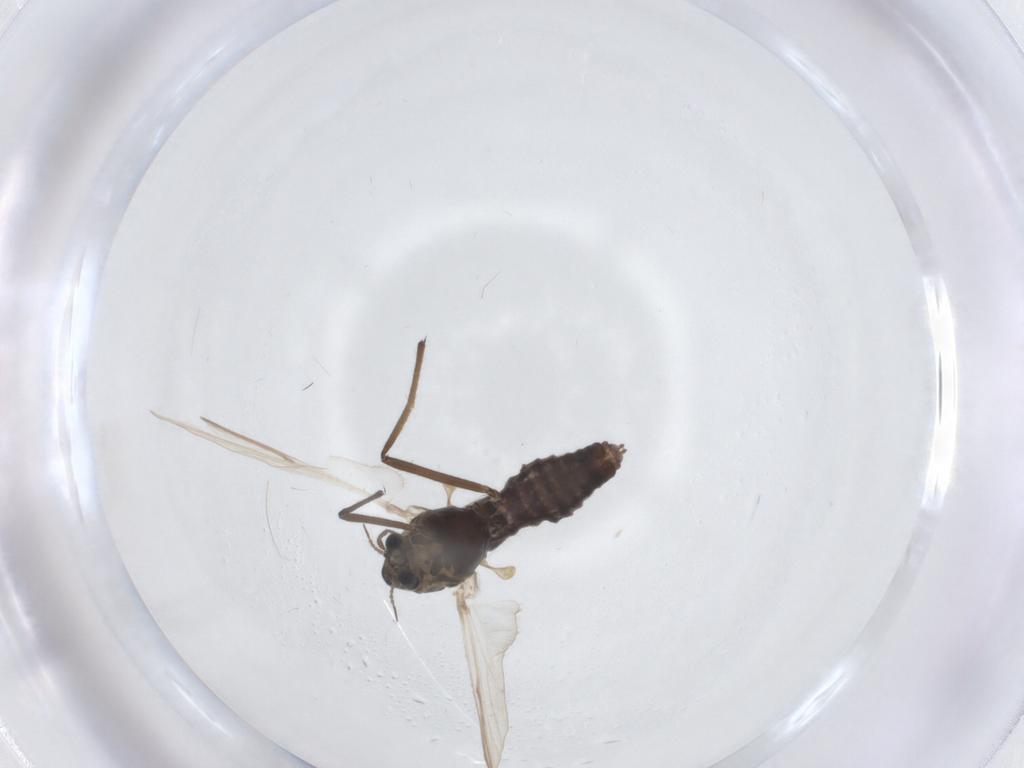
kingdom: Animalia
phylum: Arthropoda
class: Insecta
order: Diptera
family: Chironomidae
